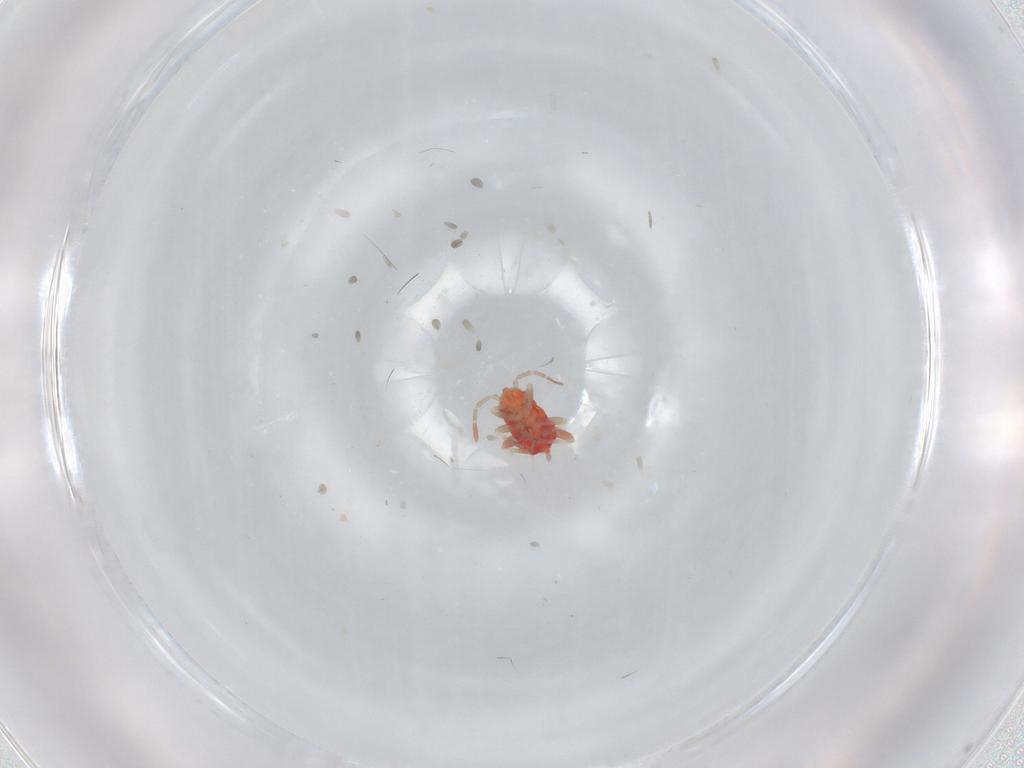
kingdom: Animalia
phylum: Arthropoda
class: Insecta
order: Hemiptera
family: Miridae
